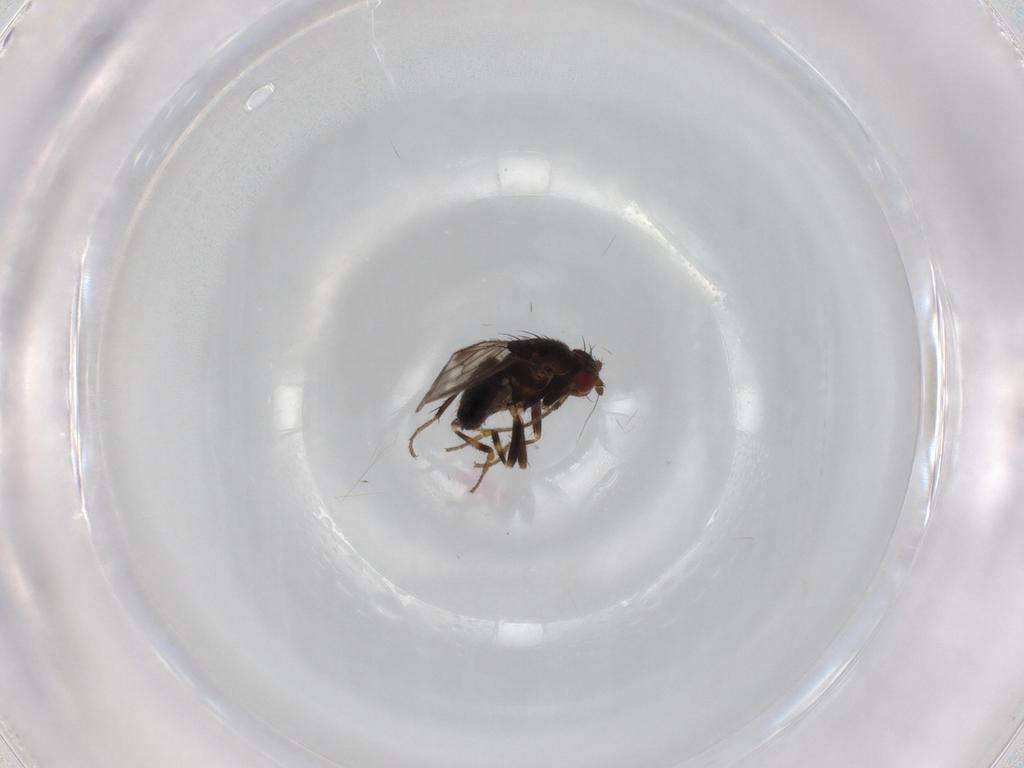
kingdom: Animalia
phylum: Arthropoda
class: Insecta
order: Diptera
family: Sphaeroceridae
